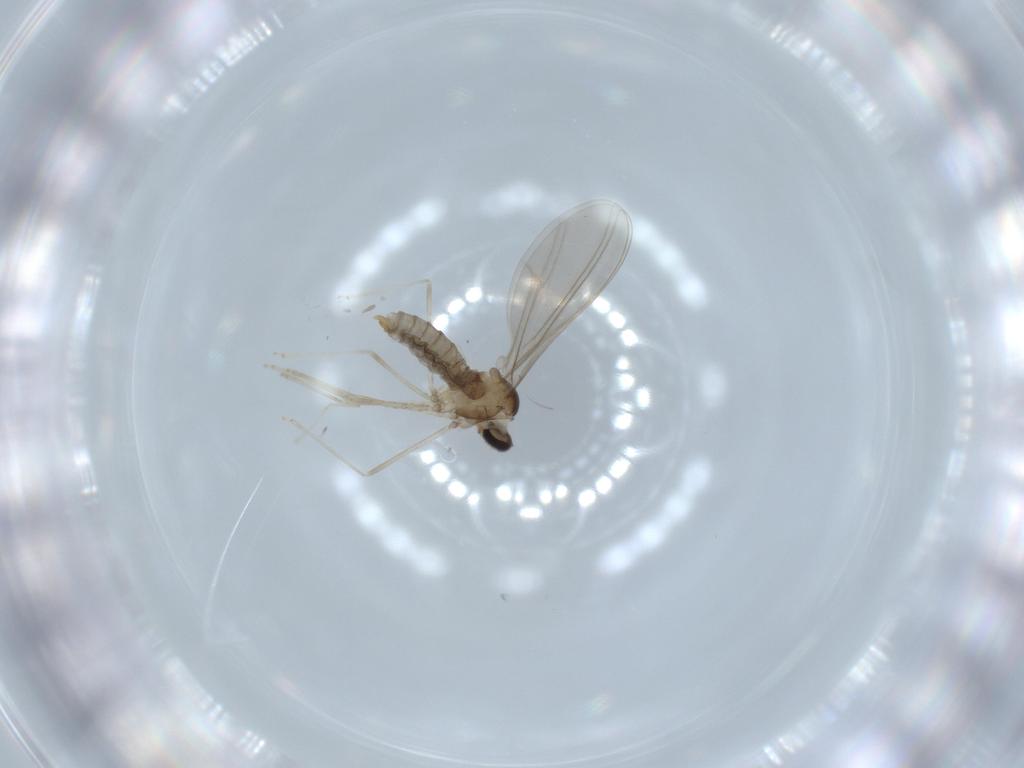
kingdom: Animalia
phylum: Arthropoda
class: Insecta
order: Diptera
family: Cecidomyiidae
